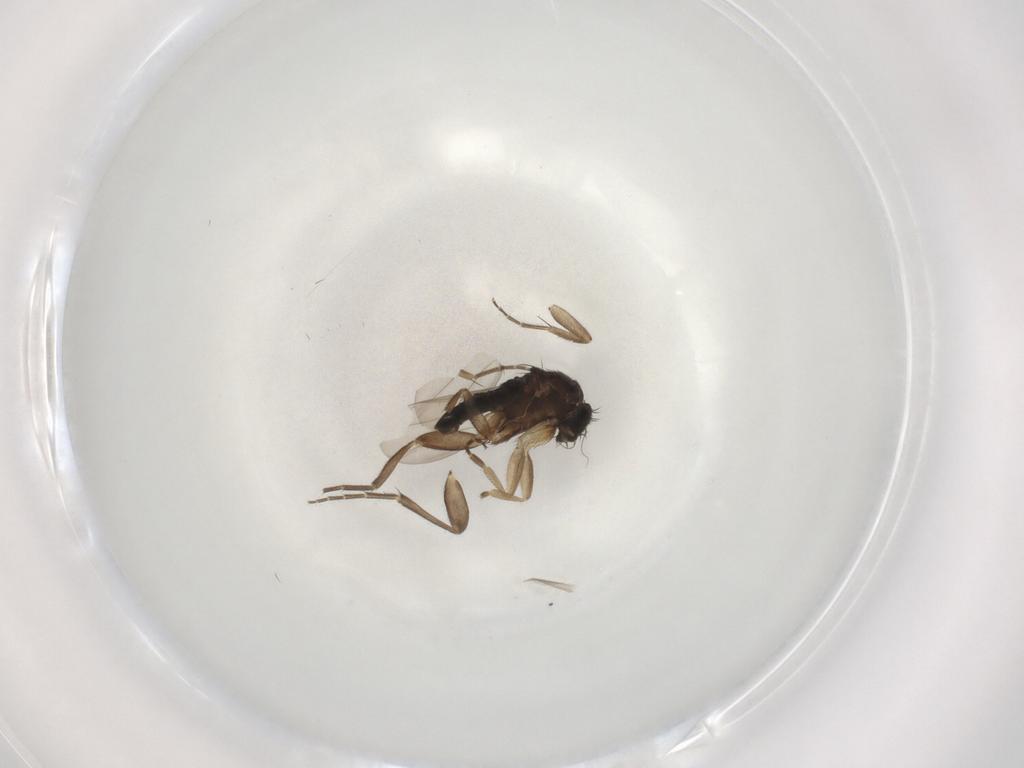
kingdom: Animalia
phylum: Arthropoda
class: Insecta
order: Diptera
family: Phoridae
